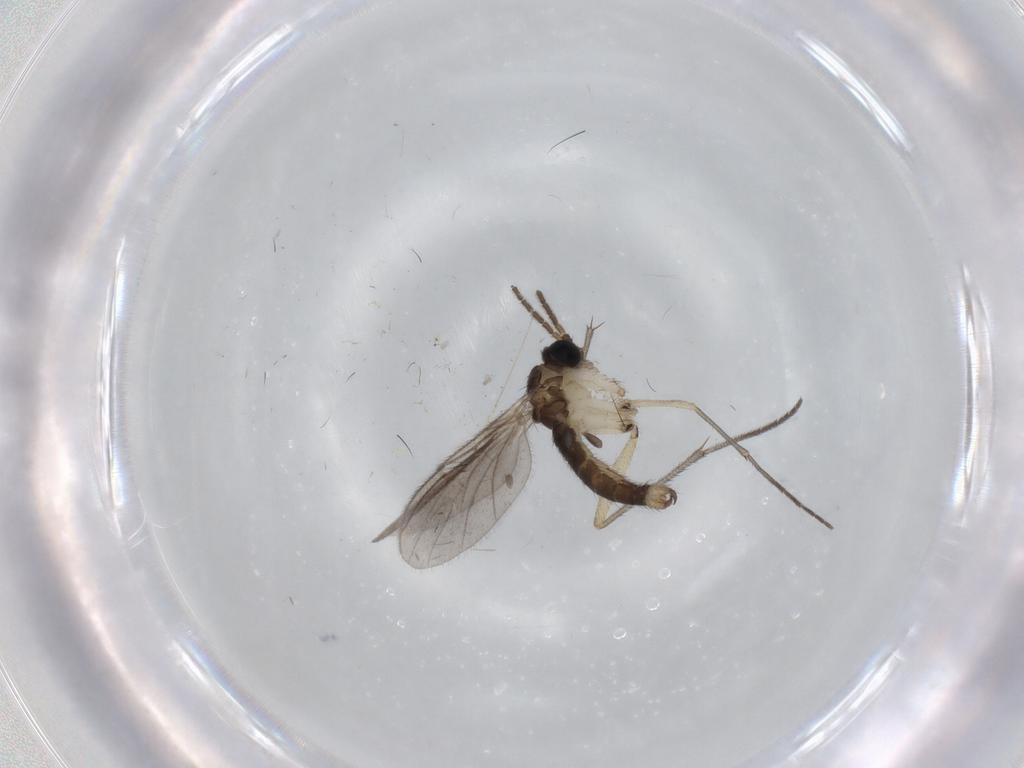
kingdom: Animalia
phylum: Arthropoda
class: Insecta
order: Diptera
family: Sciaridae
